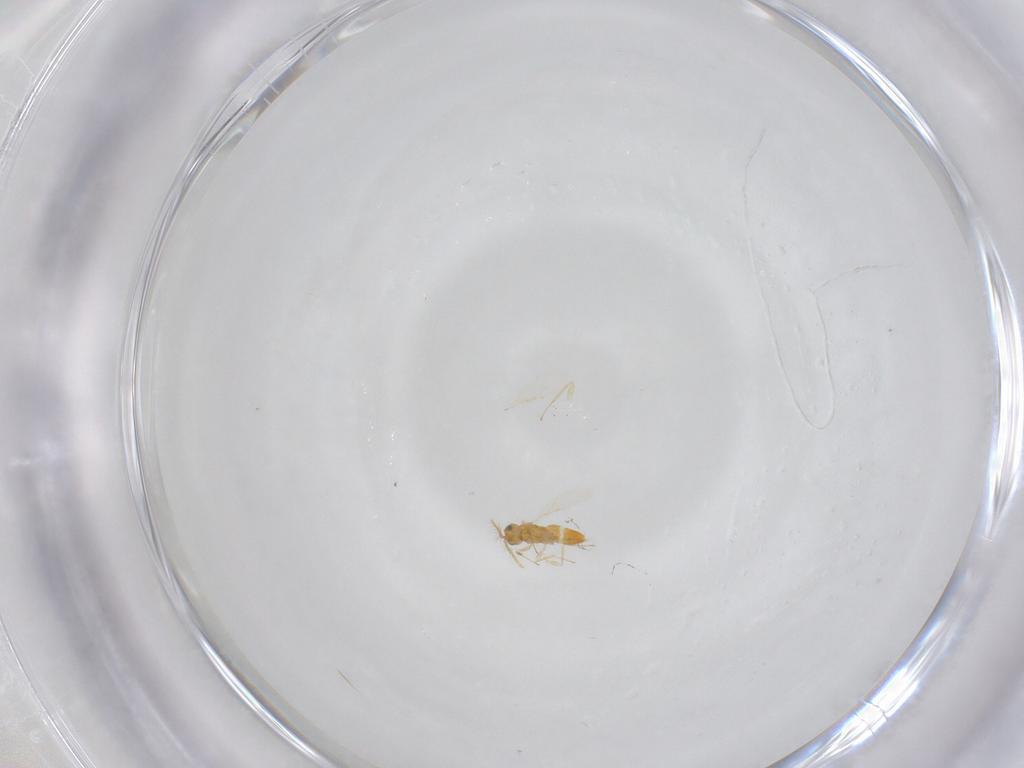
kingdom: Animalia
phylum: Arthropoda
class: Insecta
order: Hymenoptera
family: Aphelinidae
